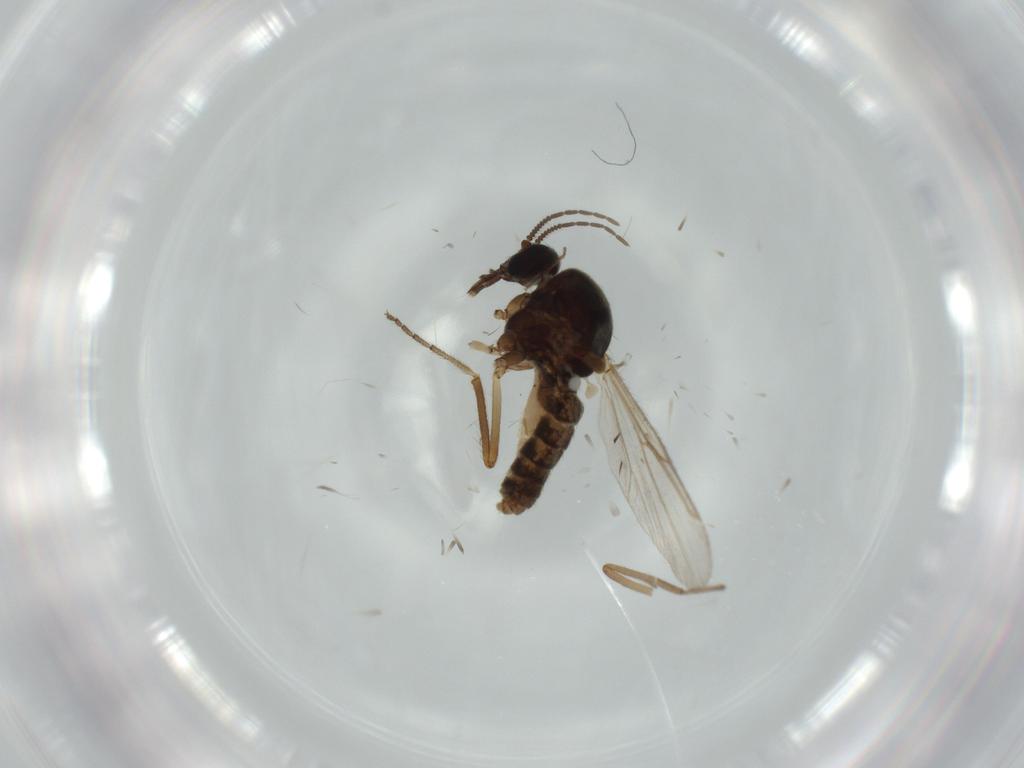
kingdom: Animalia
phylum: Arthropoda
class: Insecta
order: Diptera
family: Ceratopogonidae
